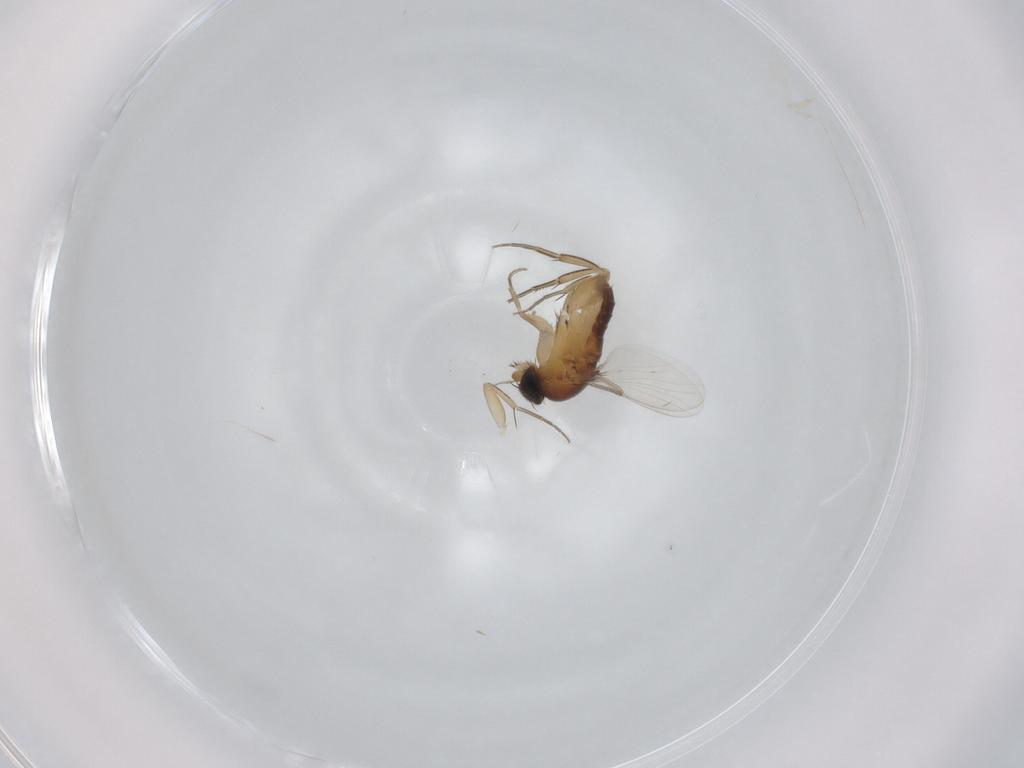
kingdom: Animalia
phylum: Arthropoda
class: Insecta
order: Diptera
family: Phoridae
